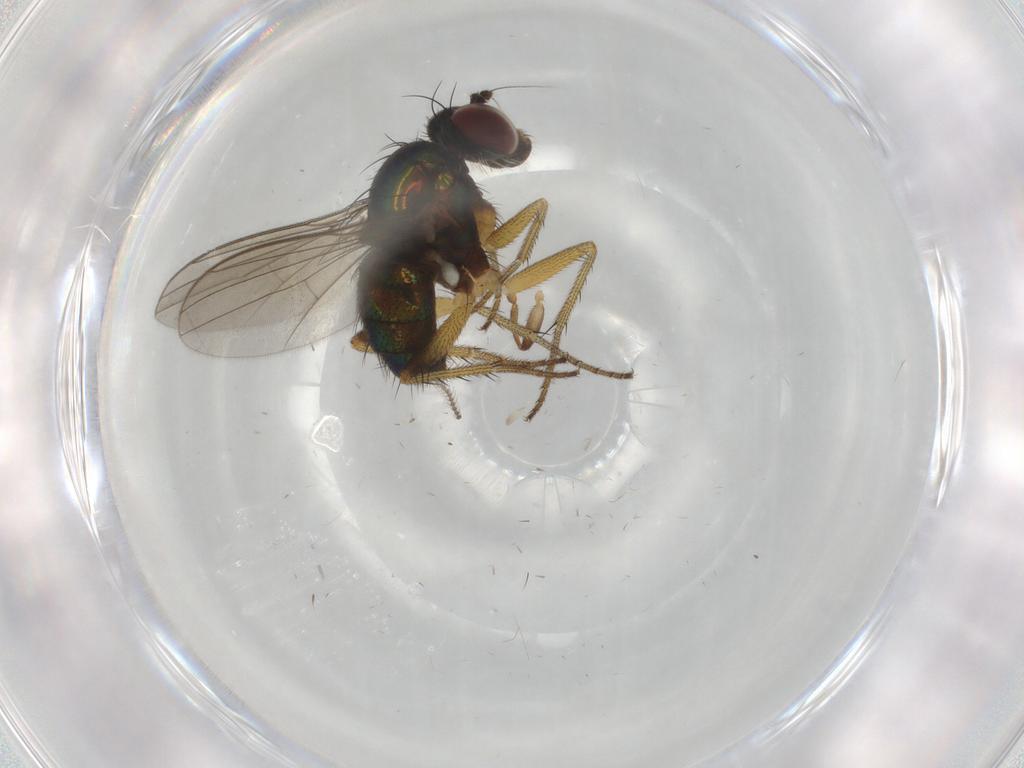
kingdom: Animalia
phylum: Arthropoda
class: Insecta
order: Diptera
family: Dolichopodidae
